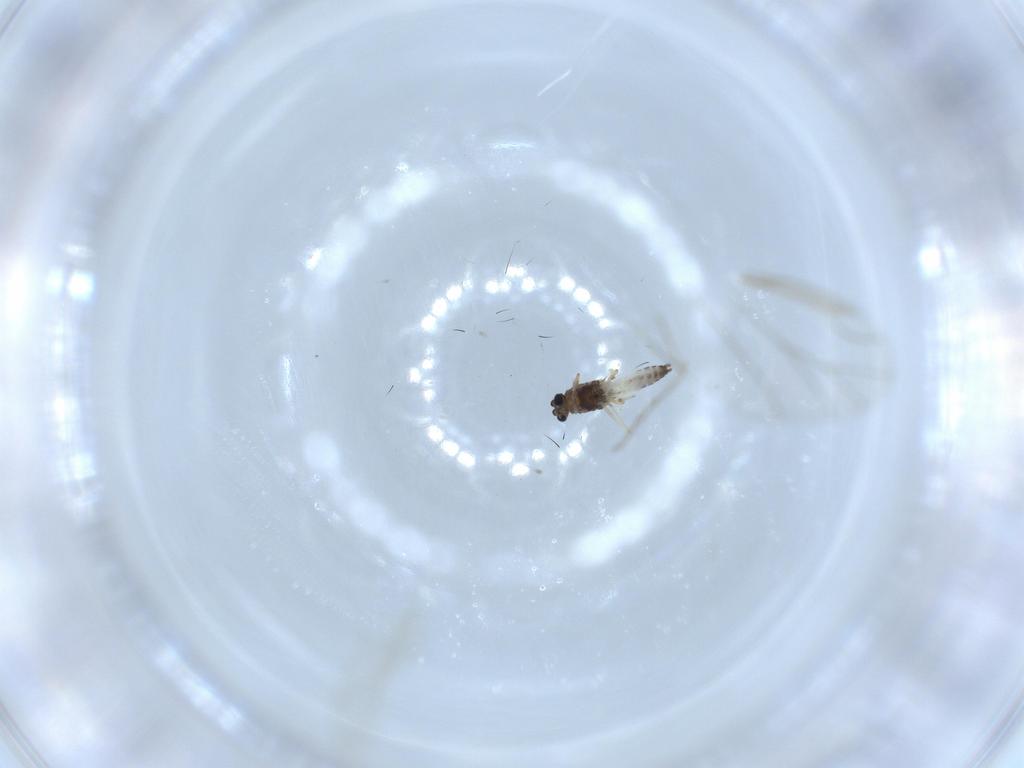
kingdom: Animalia
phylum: Arthropoda
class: Insecta
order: Diptera
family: Chironomidae
